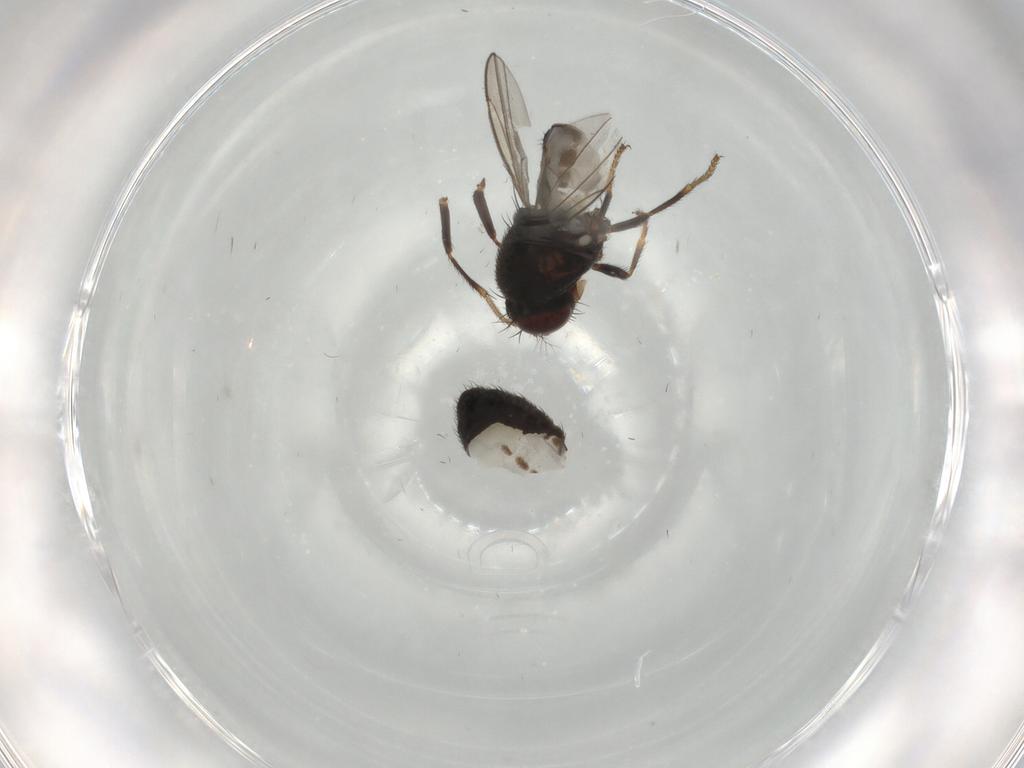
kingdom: Animalia
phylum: Arthropoda
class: Insecta
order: Diptera
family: Ephydridae
